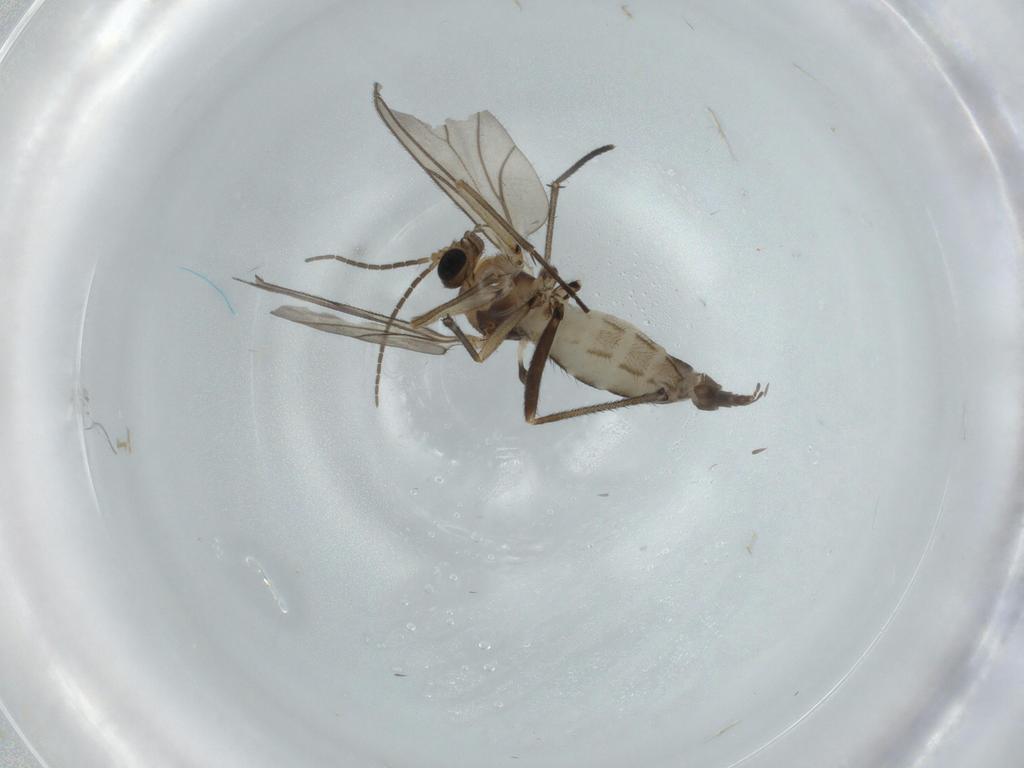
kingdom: Animalia
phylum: Arthropoda
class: Insecta
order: Diptera
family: Sciaridae
